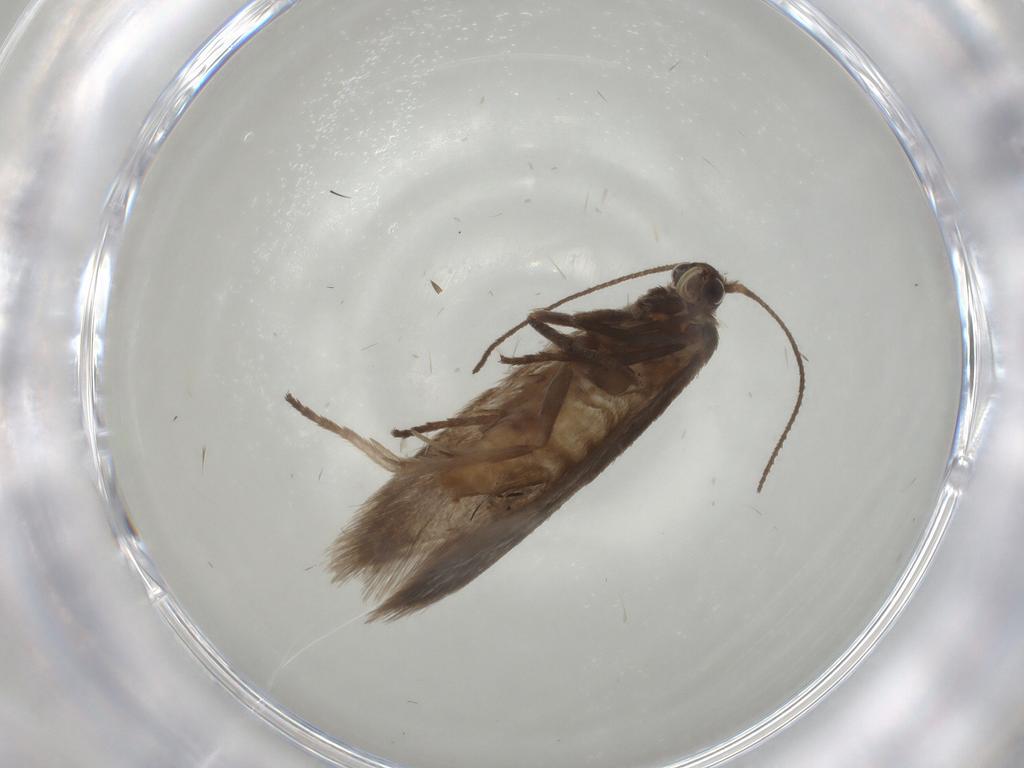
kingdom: Animalia
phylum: Arthropoda
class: Insecta
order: Lepidoptera
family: Limacodidae
